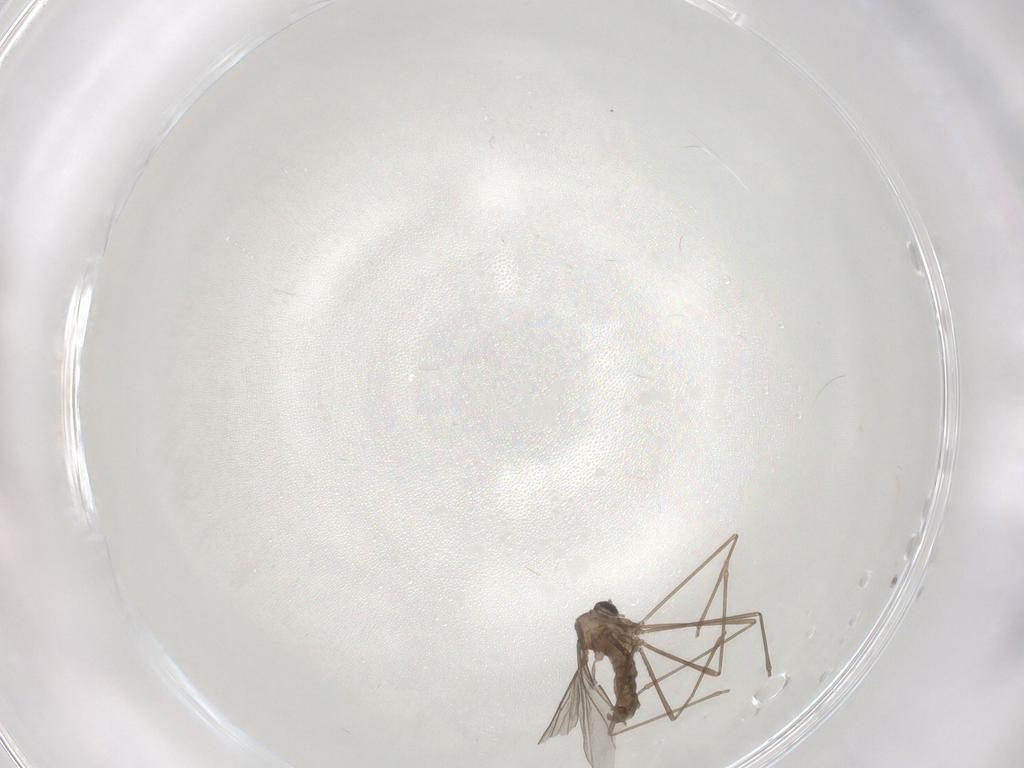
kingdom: Animalia
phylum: Arthropoda
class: Insecta
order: Diptera
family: Cecidomyiidae
